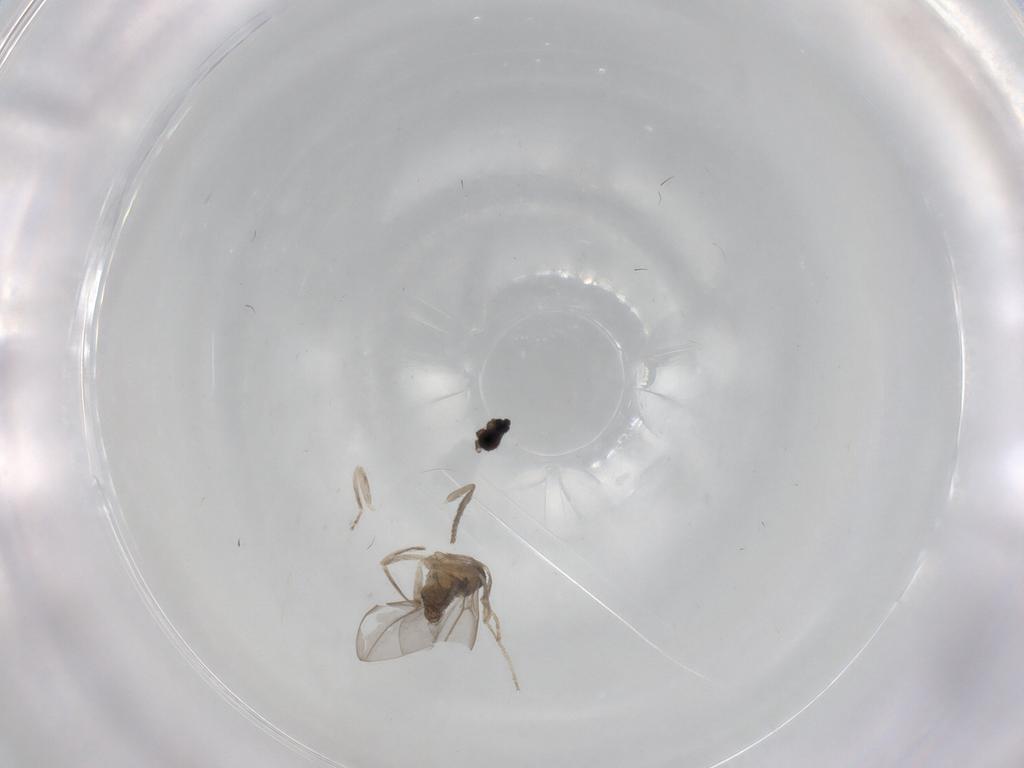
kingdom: Animalia
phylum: Arthropoda
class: Insecta
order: Diptera
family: Cecidomyiidae
